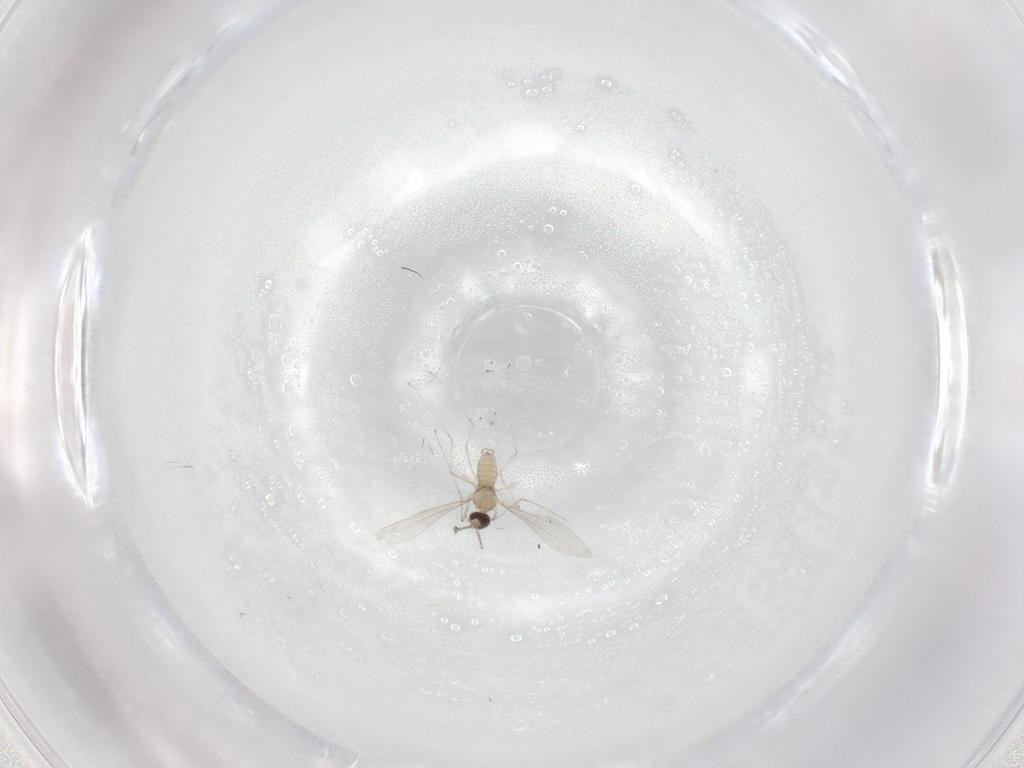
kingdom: Animalia
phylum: Arthropoda
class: Insecta
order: Diptera
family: Cecidomyiidae
